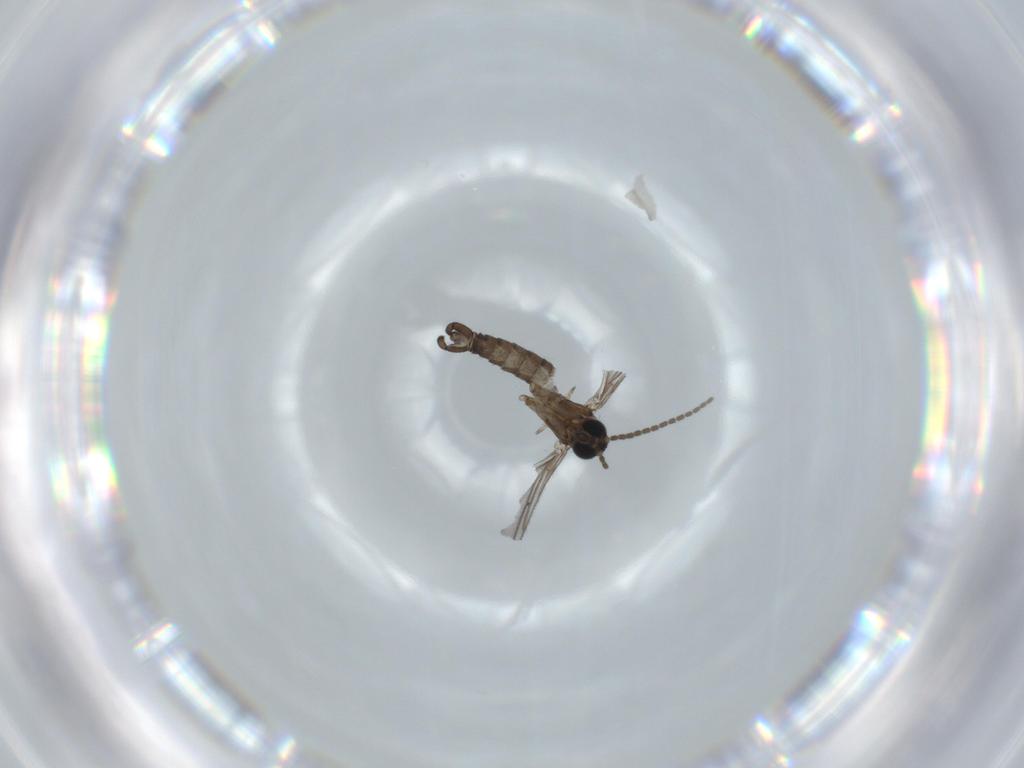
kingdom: Animalia
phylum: Arthropoda
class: Insecta
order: Diptera
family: Sciaridae
